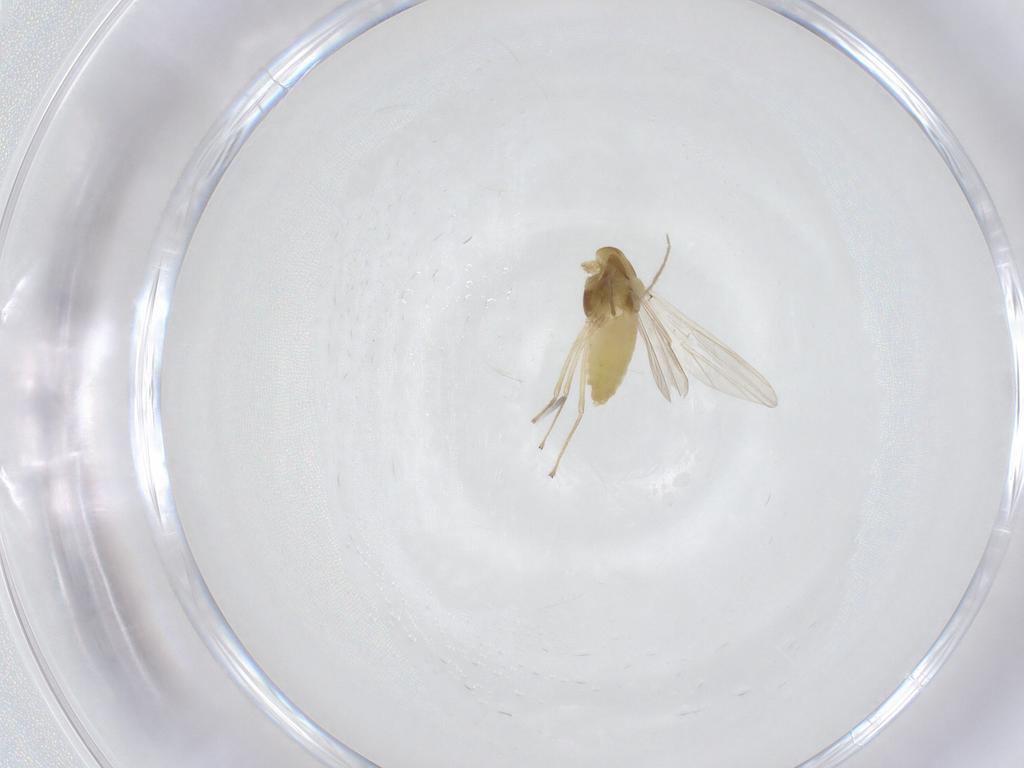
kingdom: Animalia
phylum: Arthropoda
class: Insecta
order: Diptera
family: Chironomidae
